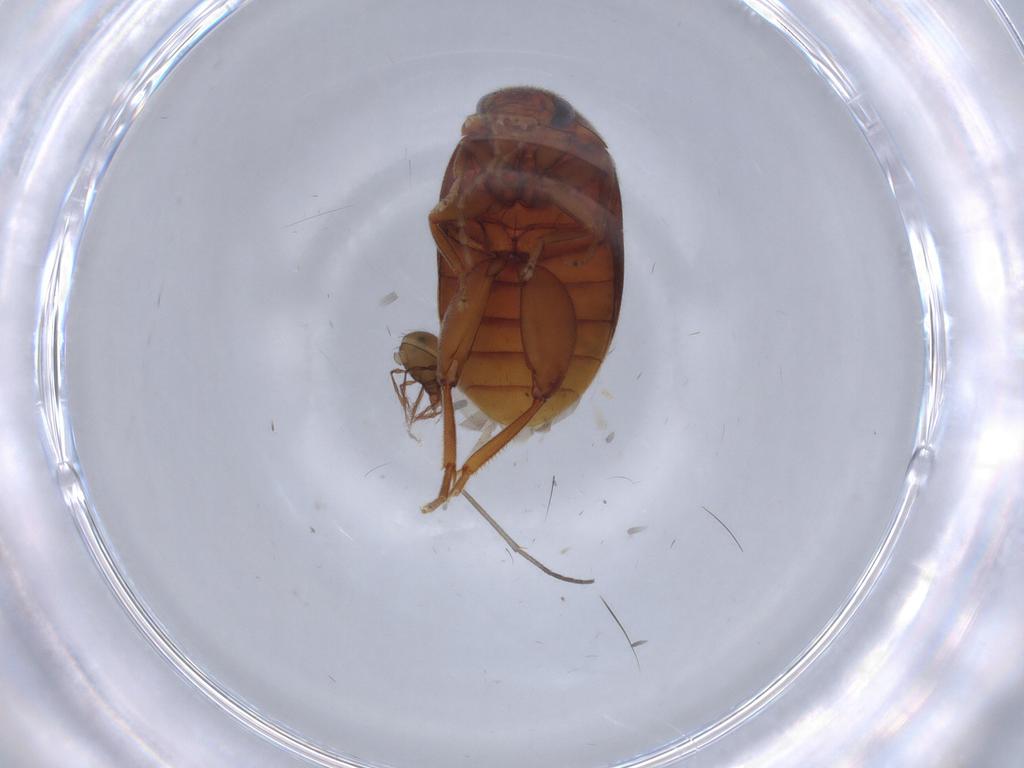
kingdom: Animalia
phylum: Arthropoda
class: Insecta
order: Coleoptera
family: Scirtidae
